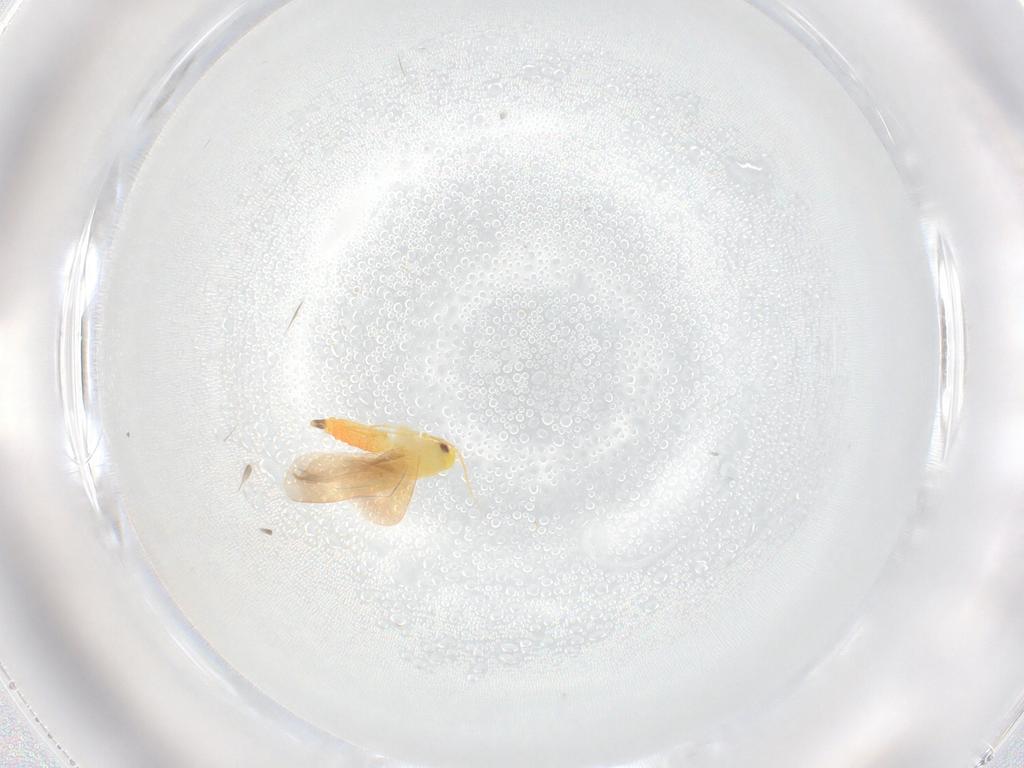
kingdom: Animalia
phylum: Arthropoda
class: Insecta
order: Hemiptera
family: Aleyrodidae
